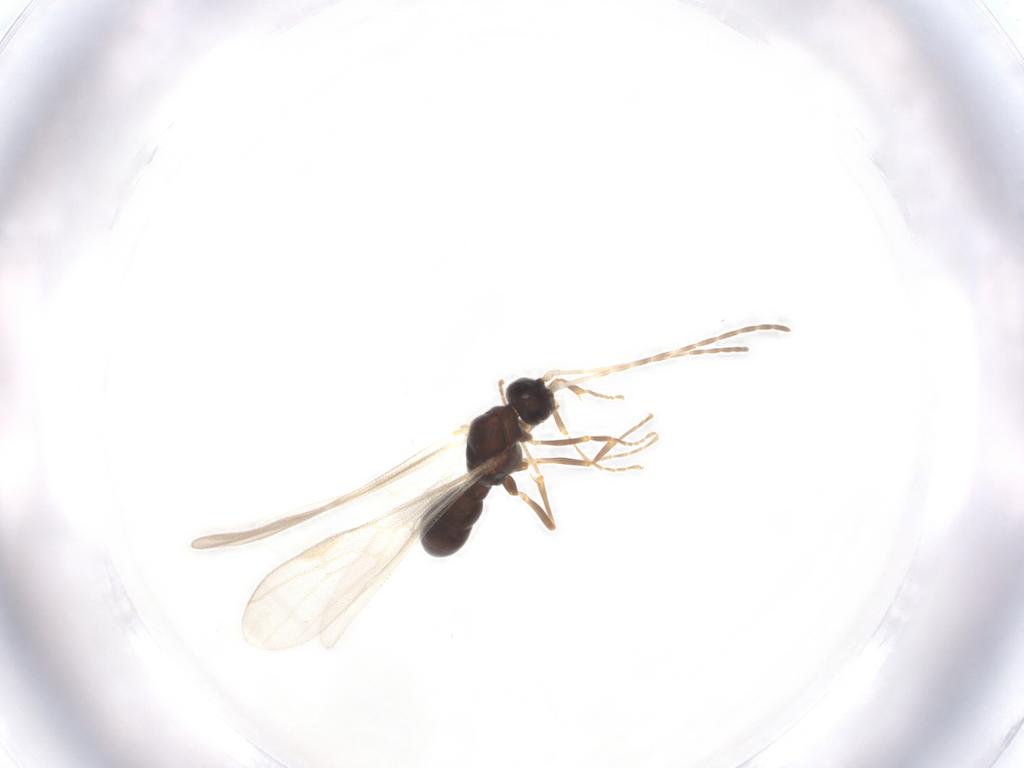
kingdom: Animalia
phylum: Arthropoda
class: Insecta
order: Hymenoptera
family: Formicidae
